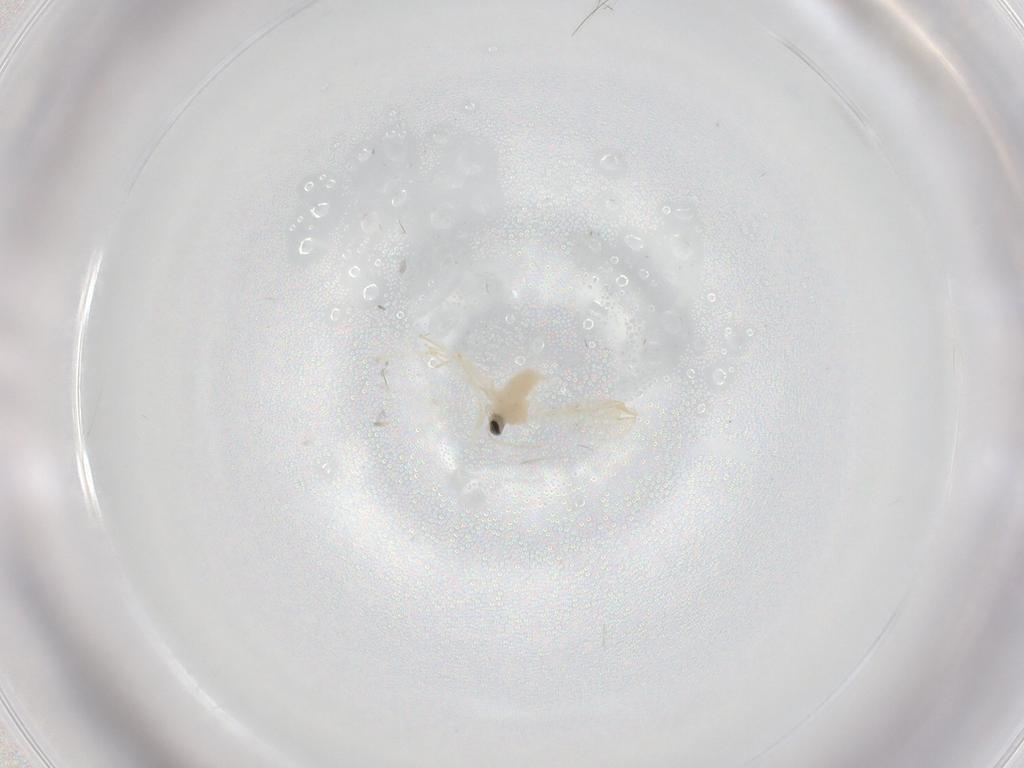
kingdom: Animalia
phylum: Arthropoda
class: Insecta
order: Diptera
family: Cecidomyiidae
